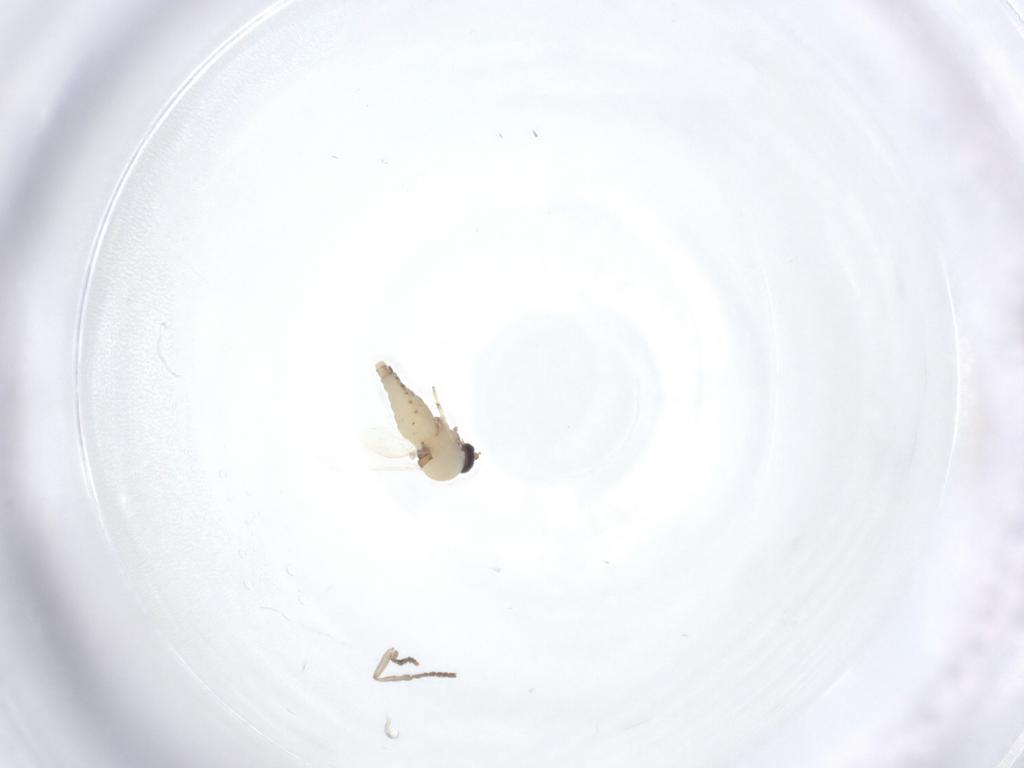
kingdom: Animalia
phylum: Arthropoda
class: Insecta
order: Diptera
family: Ceratopogonidae
